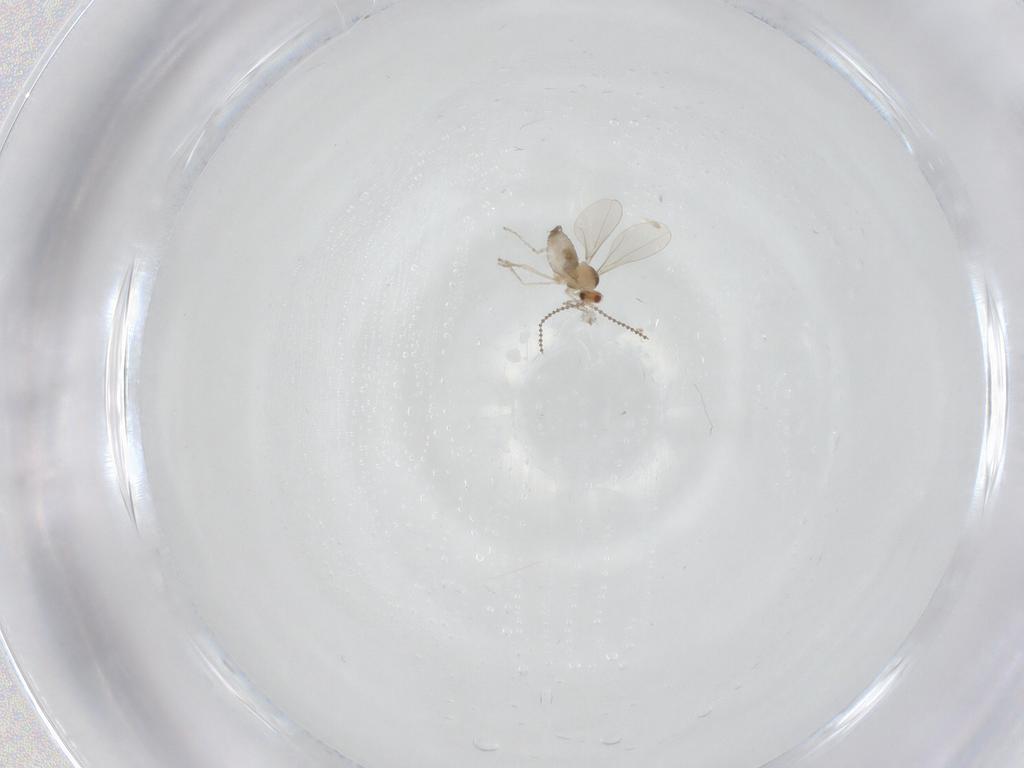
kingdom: Animalia
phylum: Arthropoda
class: Insecta
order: Diptera
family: Cecidomyiidae
